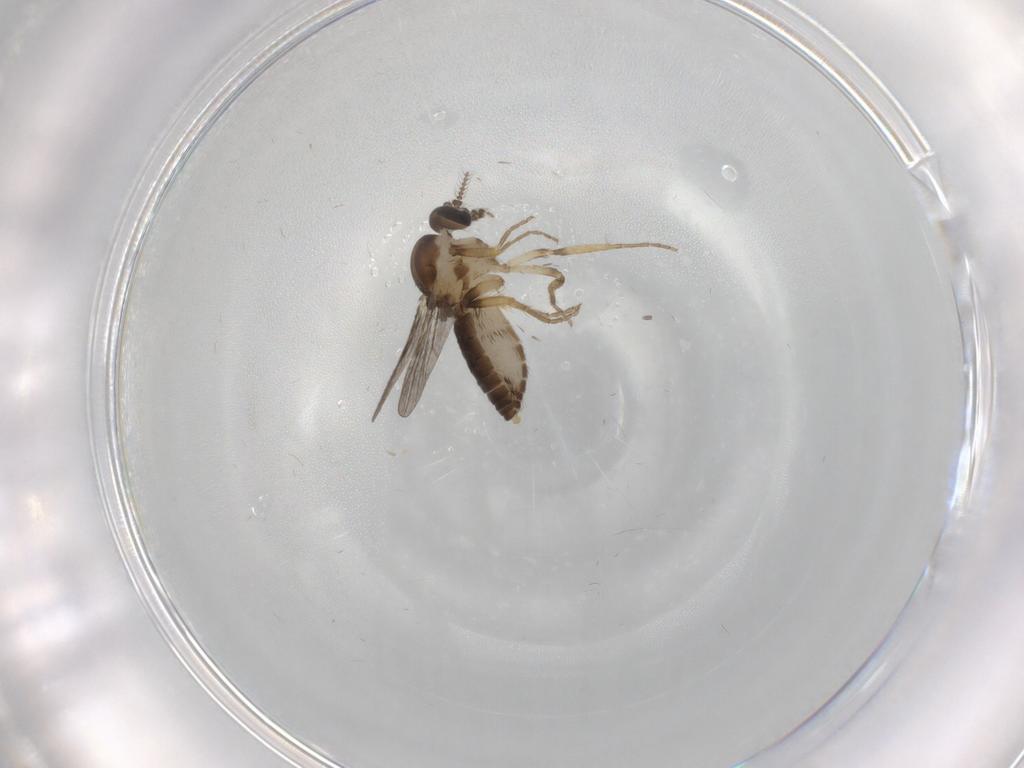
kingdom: Animalia
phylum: Arthropoda
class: Insecta
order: Diptera
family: Ceratopogonidae
